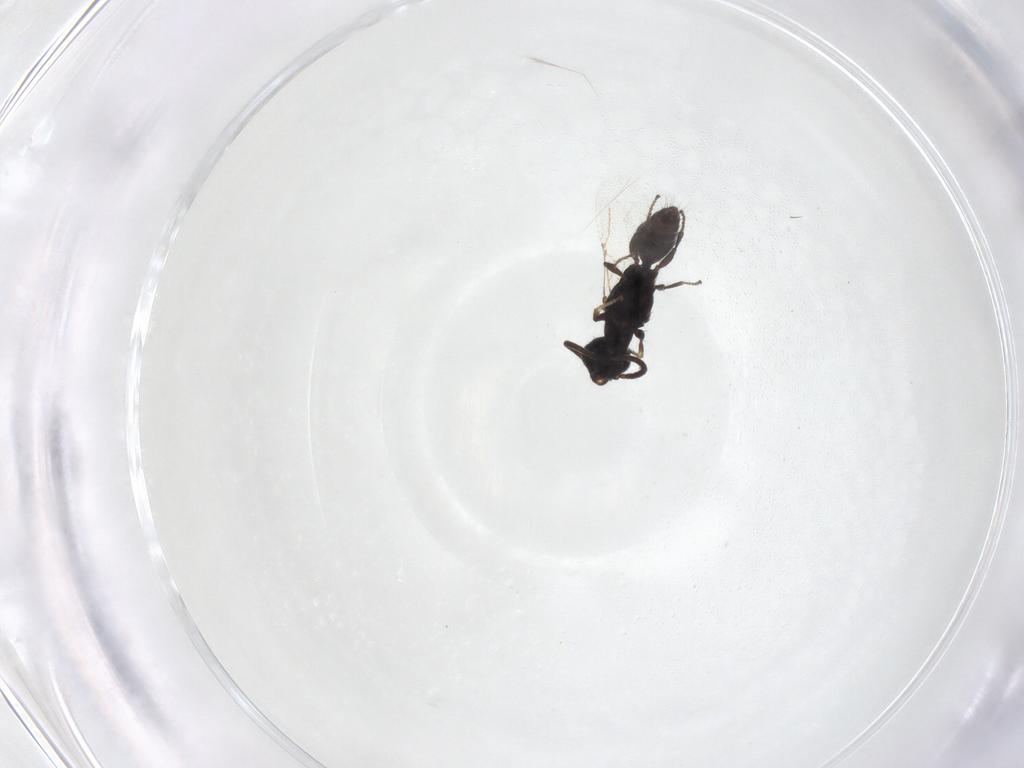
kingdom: Animalia
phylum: Arthropoda
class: Insecta
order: Hymenoptera
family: Bethylidae
